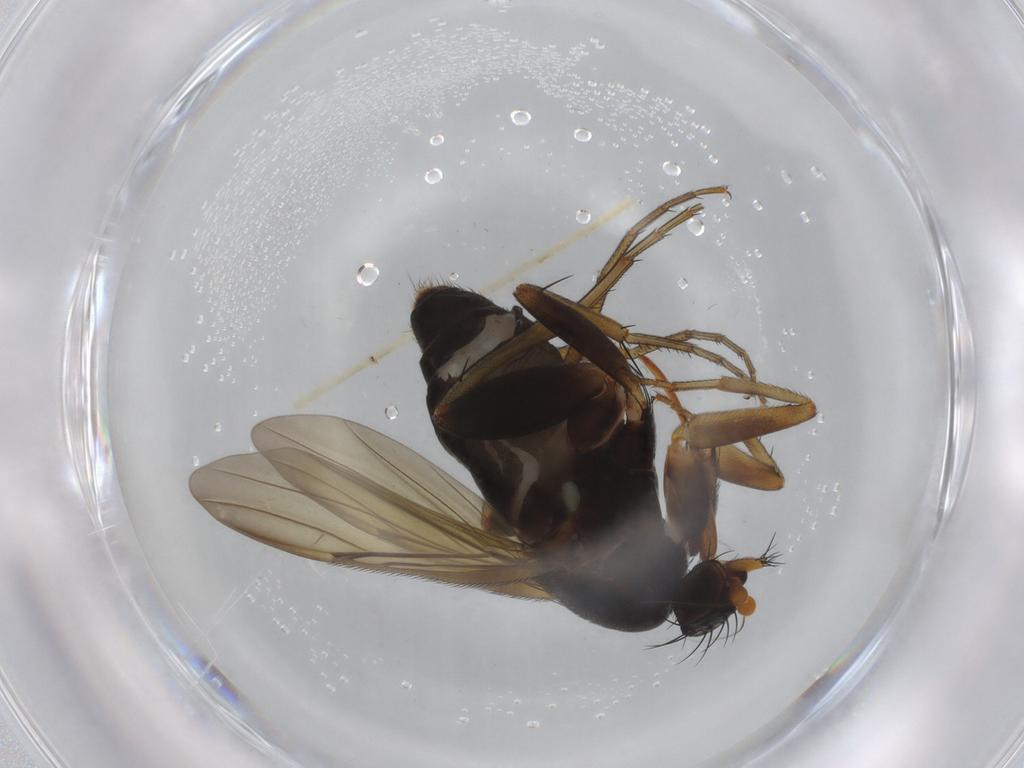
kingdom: Animalia
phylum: Arthropoda
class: Insecta
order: Diptera
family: Phoridae
